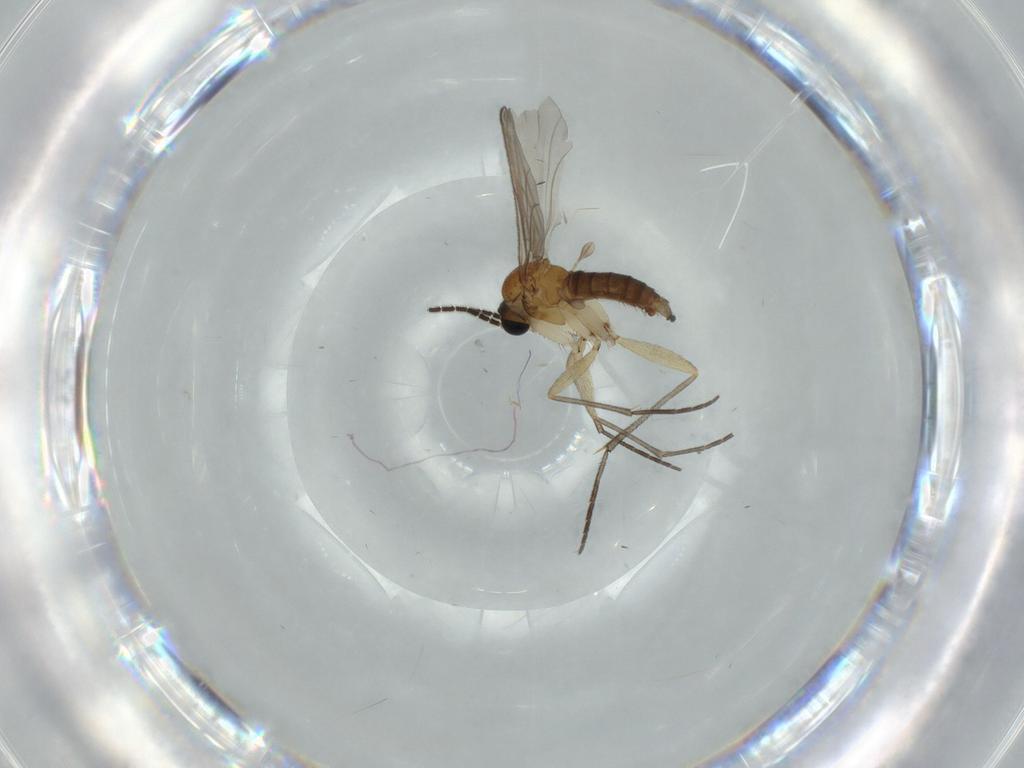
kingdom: Animalia
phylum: Arthropoda
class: Insecta
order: Diptera
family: Sciaridae
